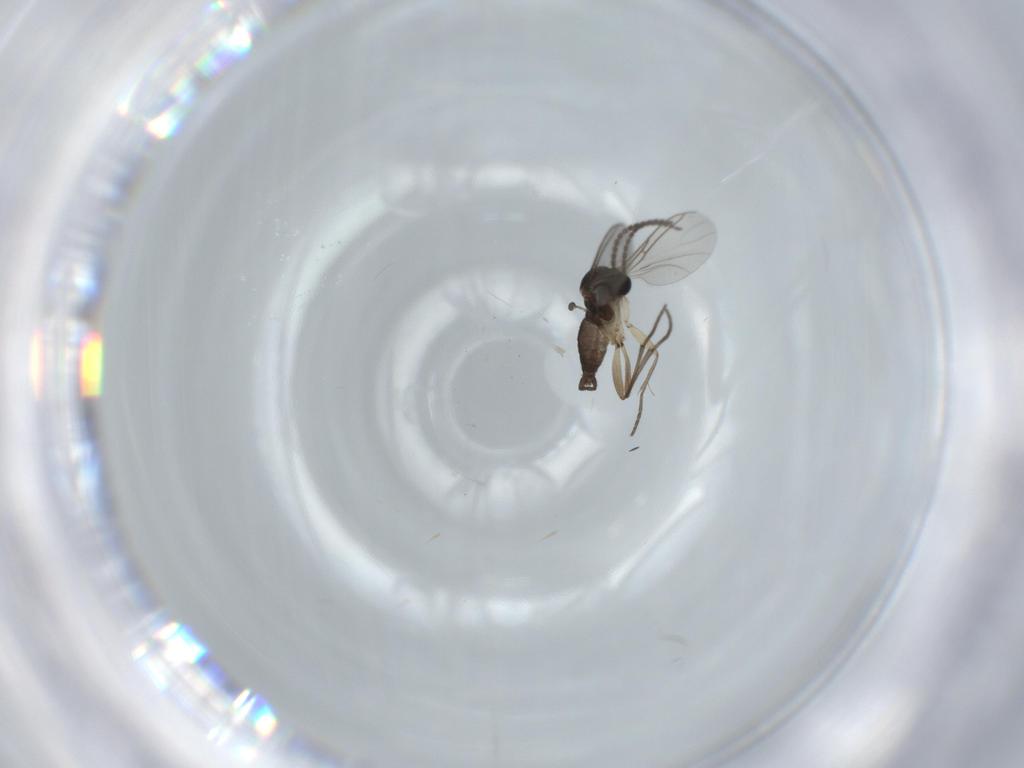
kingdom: Animalia
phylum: Arthropoda
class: Insecta
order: Diptera
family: Sciaridae
